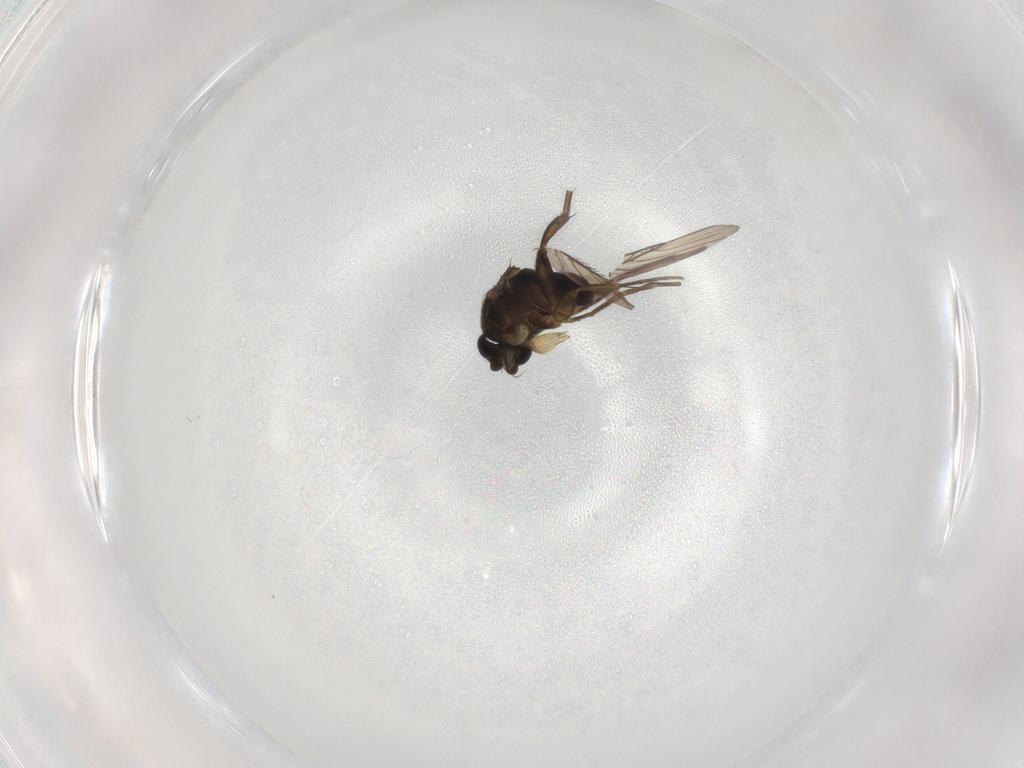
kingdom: Animalia
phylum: Arthropoda
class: Insecta
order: Diptera
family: Phoridae
